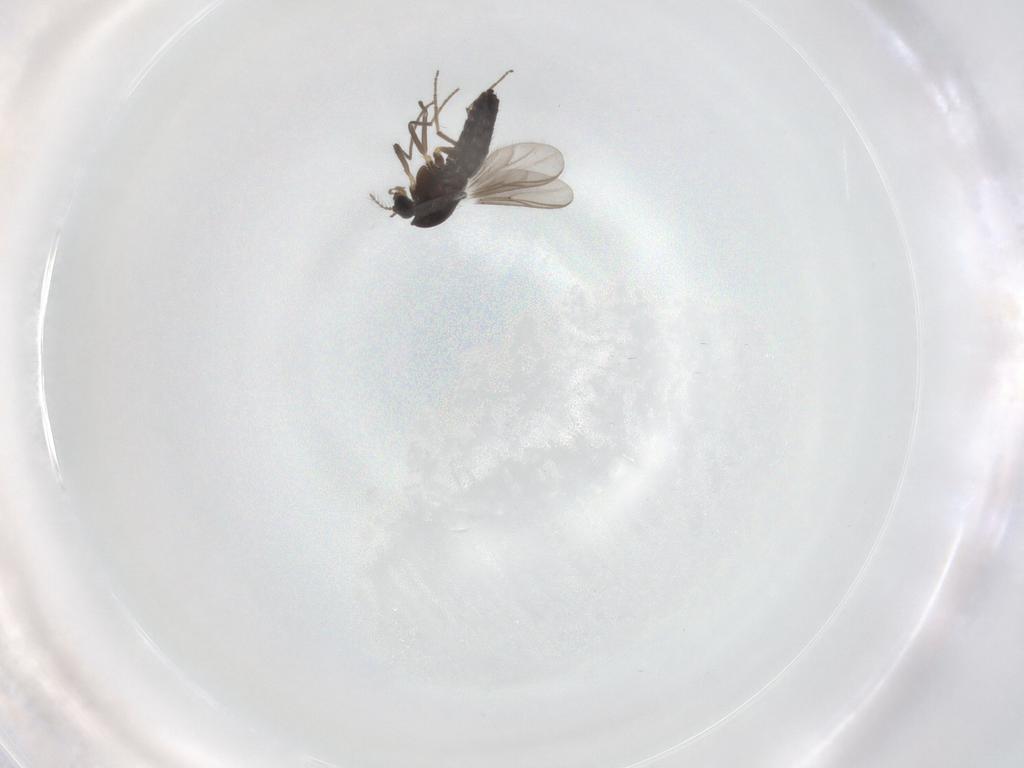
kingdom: Animalia
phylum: Arthropoda
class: Insecta
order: Diptera
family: Chironomidae
